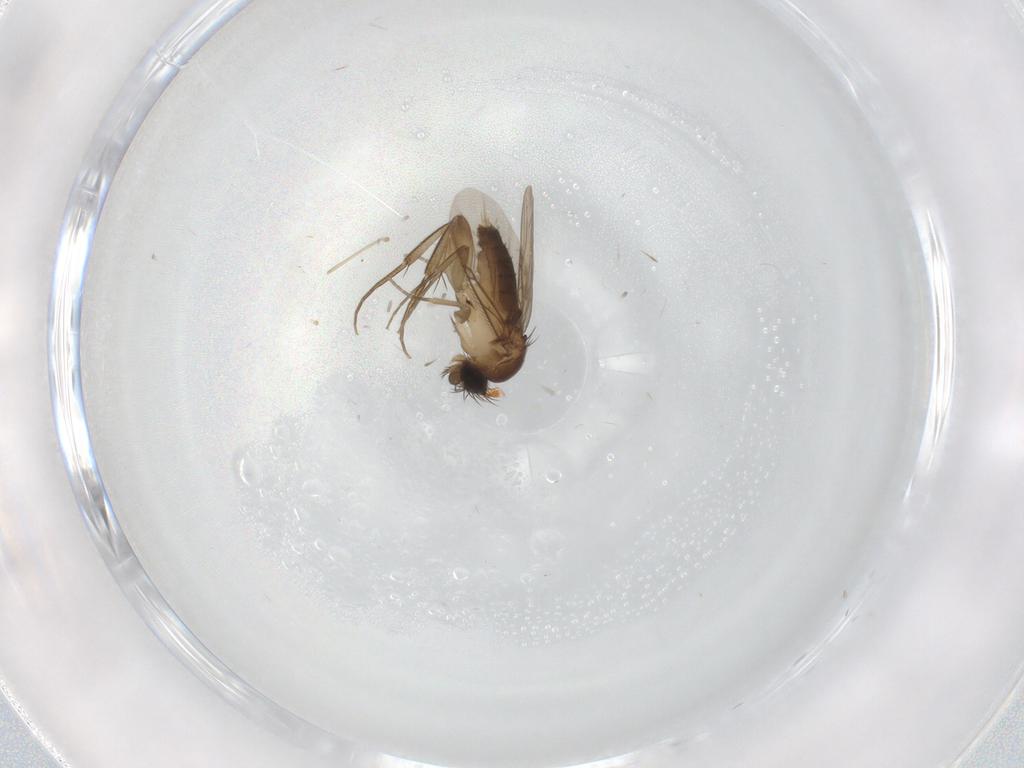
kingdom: Animalia
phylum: Arthropoda
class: Insecta
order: Diptera
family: Phoridae
